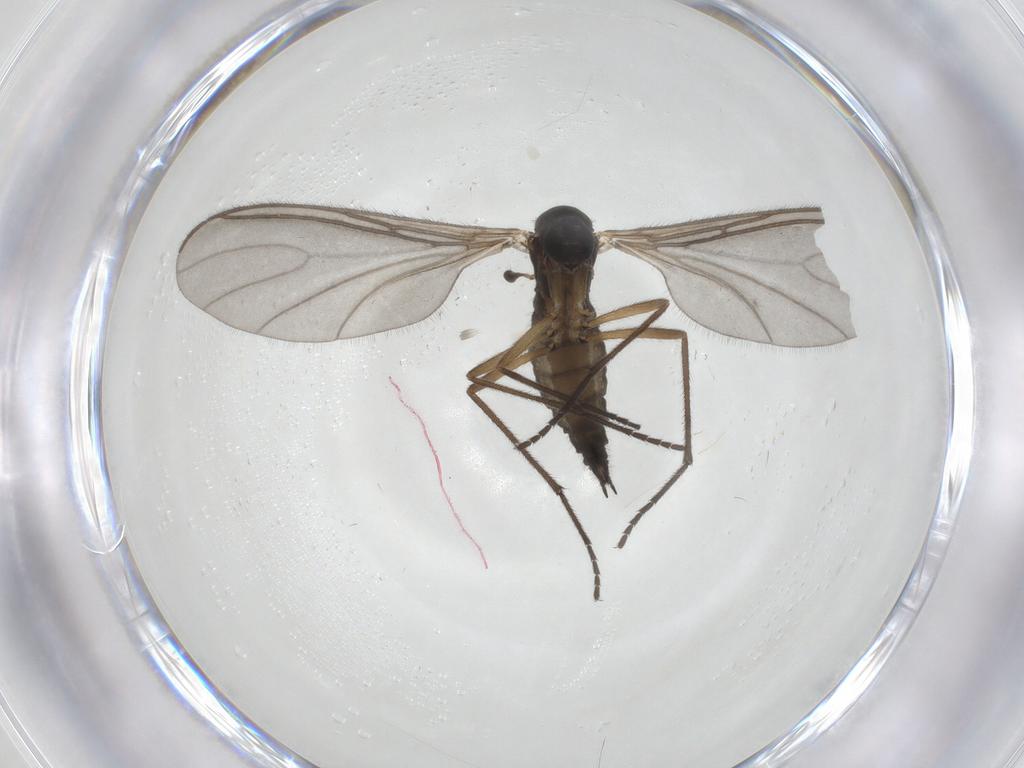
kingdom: Animalia
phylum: Arthropoda
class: Insecta
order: Diptera
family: Sciaridae
